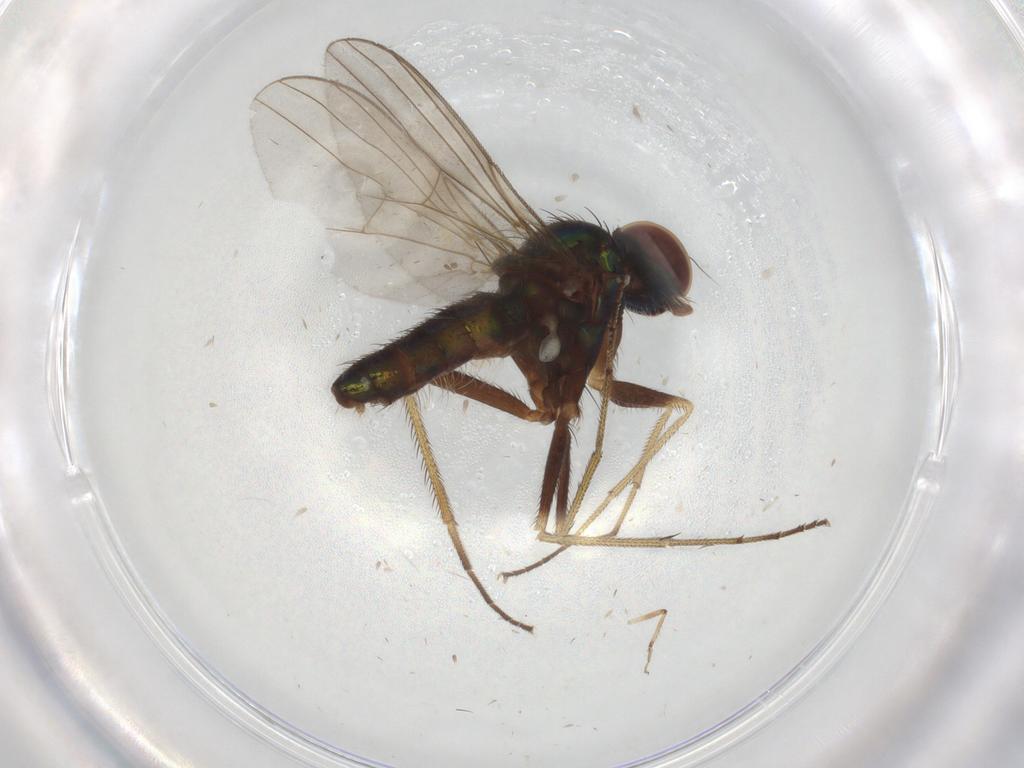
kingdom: Animalia
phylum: Arthropoda
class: Insecta
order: Diptera
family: Dolichopodidae
